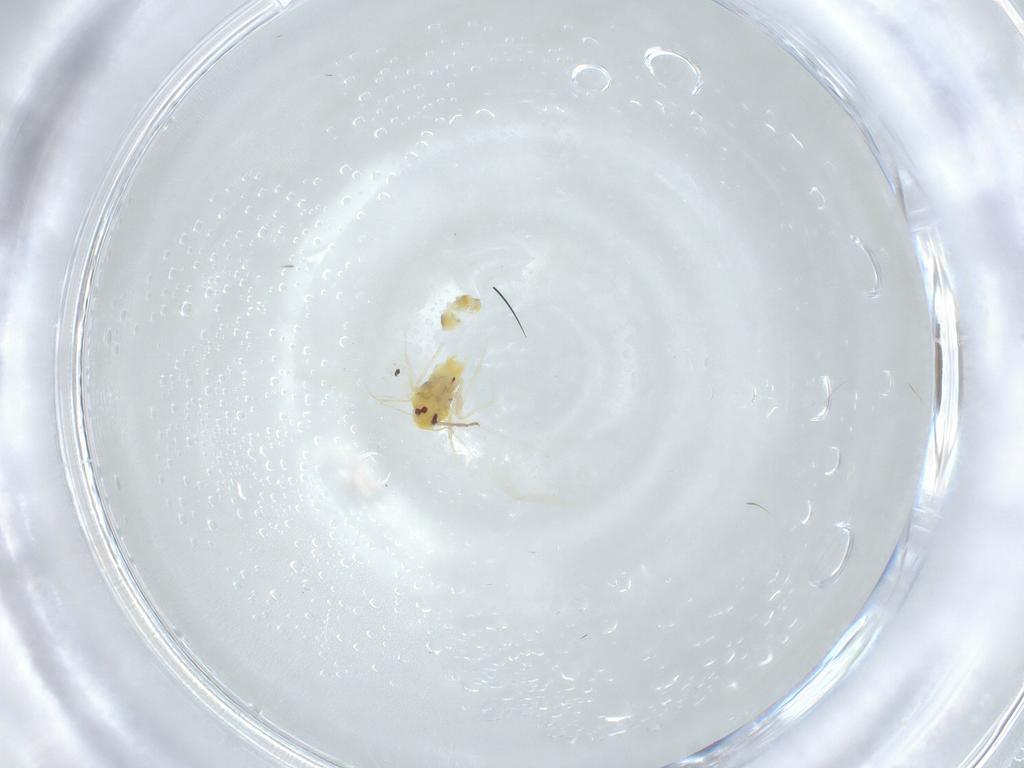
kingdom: Animalia
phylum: Arthropoda
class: Insecta
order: Hemiptera
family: Aleyrodidae
